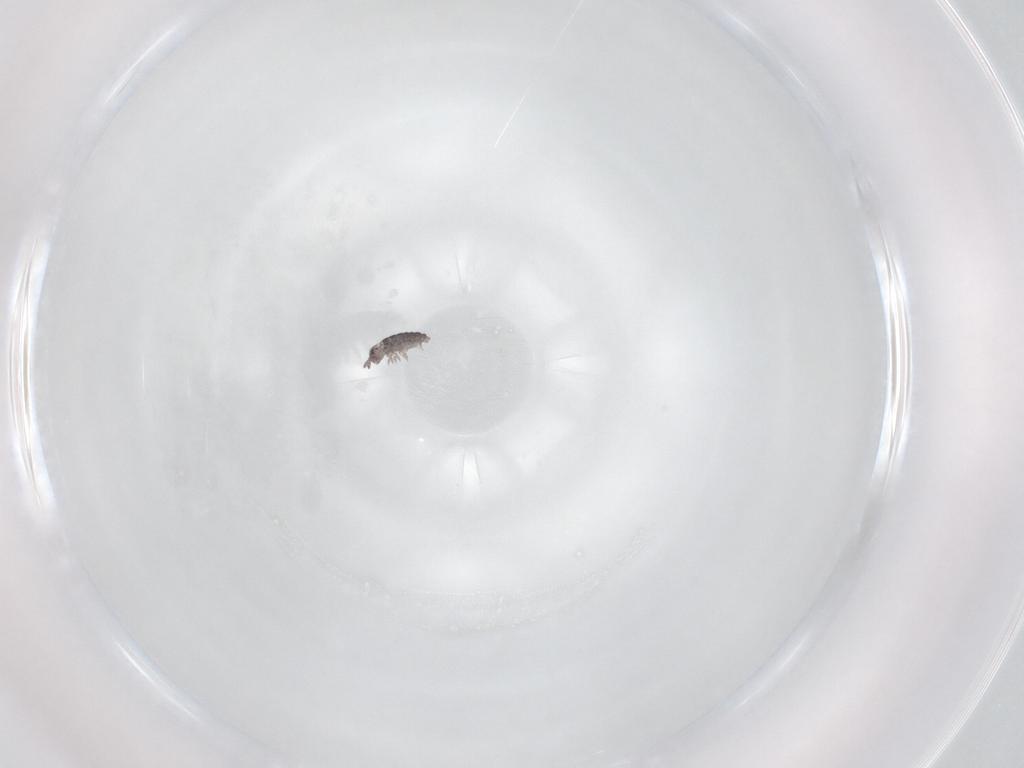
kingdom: Animalia
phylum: Arthropoda
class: Collembola
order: Poduromorpha
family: Hypogastruridae
